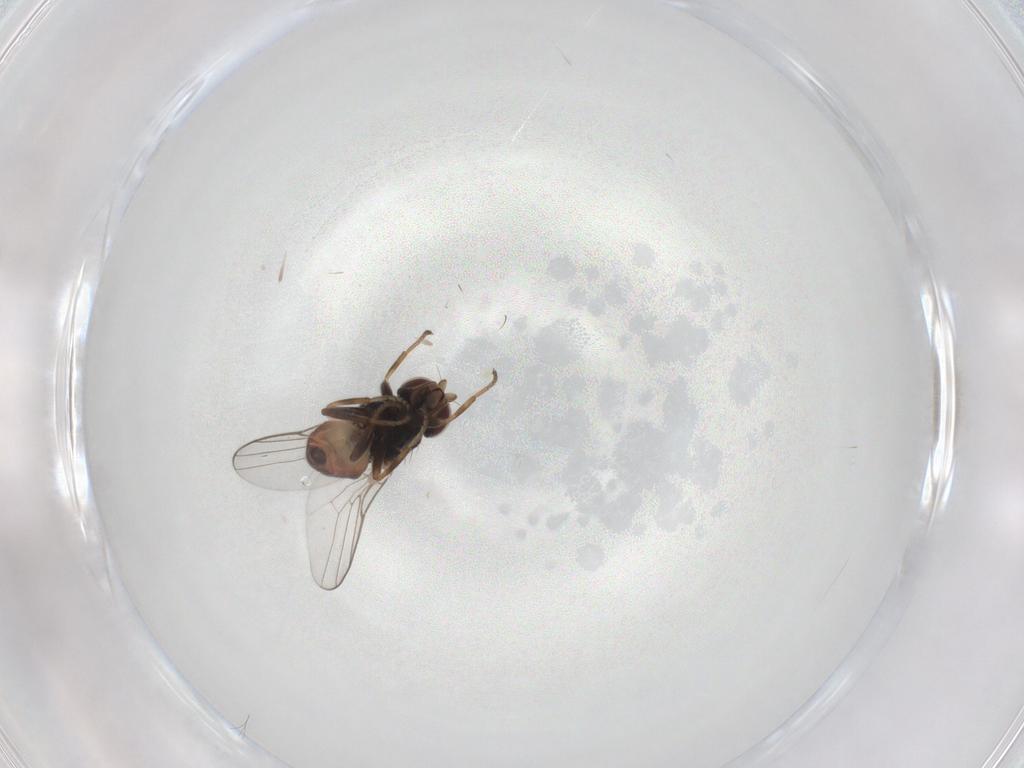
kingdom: Animalia
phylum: Arthropoda
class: Insecta
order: Diptera
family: Chloropidae
